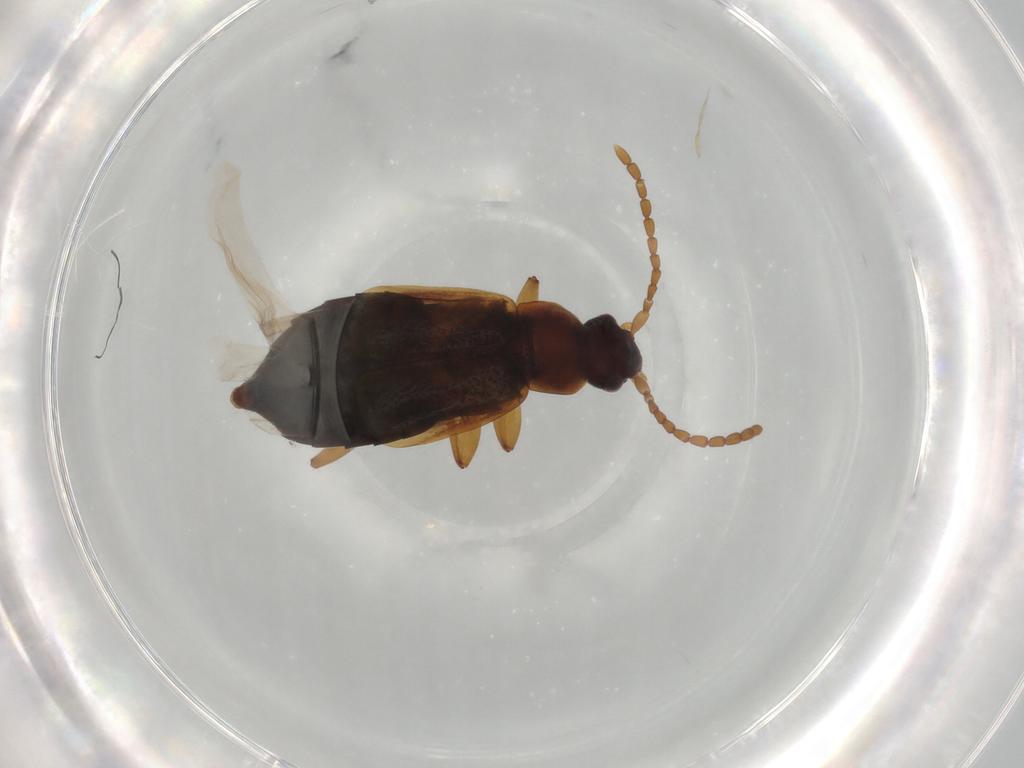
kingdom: Animalia
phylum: Arthropoda
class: Insecta
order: Coleoptera
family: Staphylinidae
